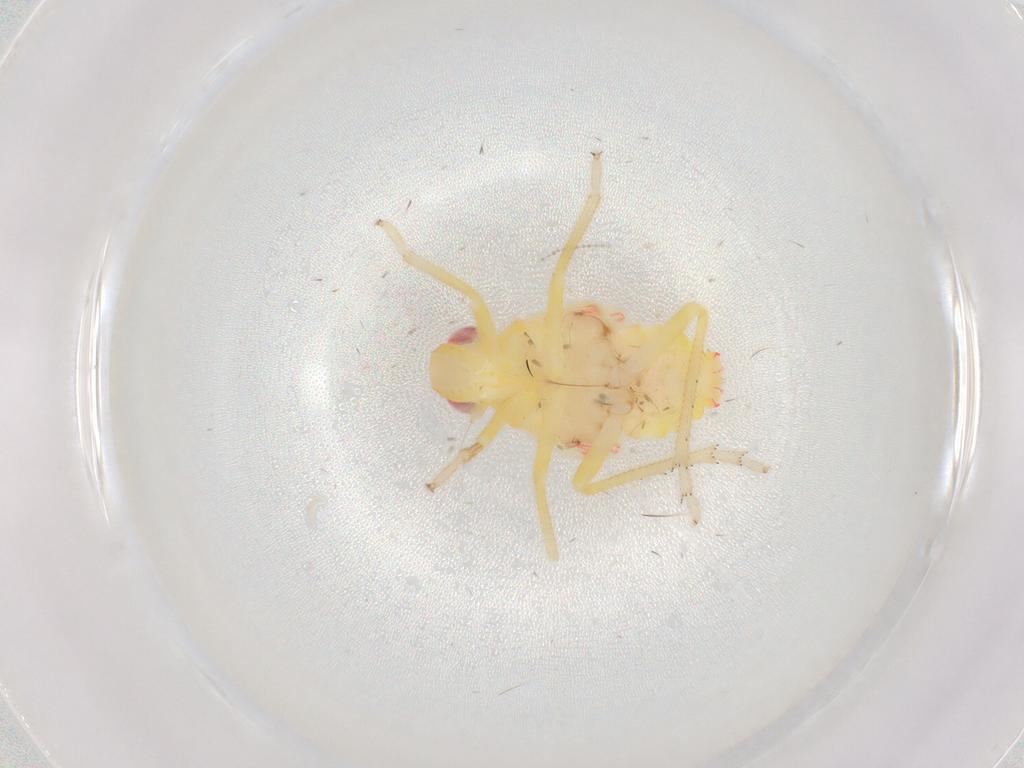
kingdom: Animalia
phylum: Arthropoda
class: Insecta
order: Hemiptera
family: Tropiduchidae
